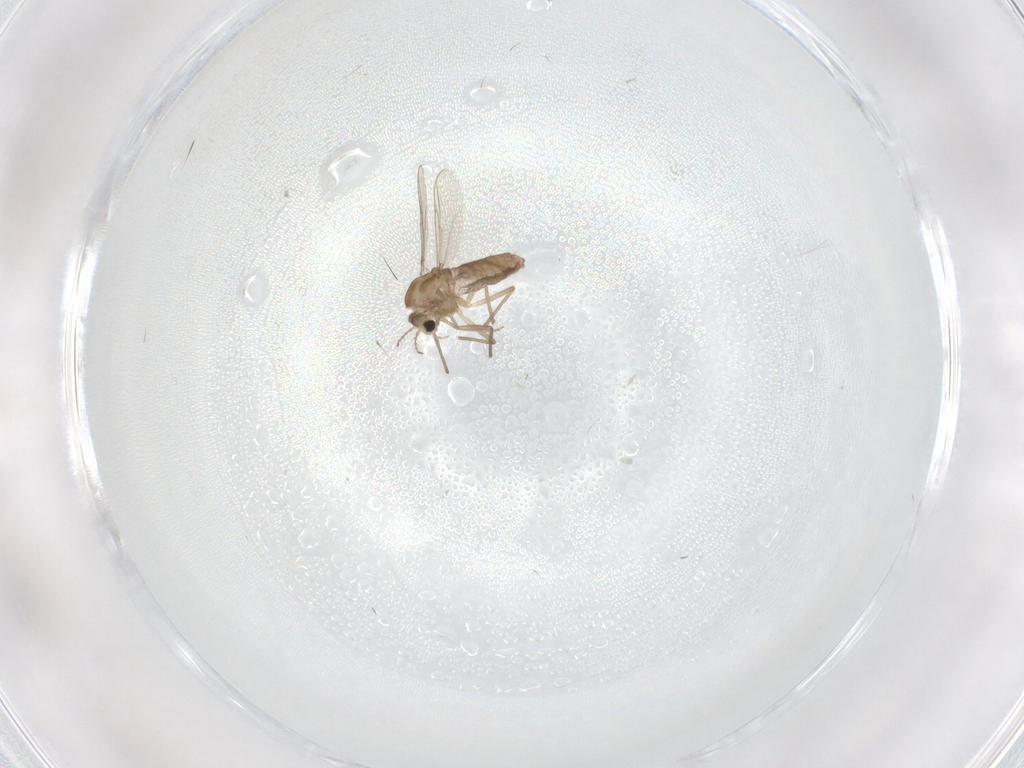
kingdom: Animalia
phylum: Arthropoda
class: Insecta
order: Diptera
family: Chironomidae
